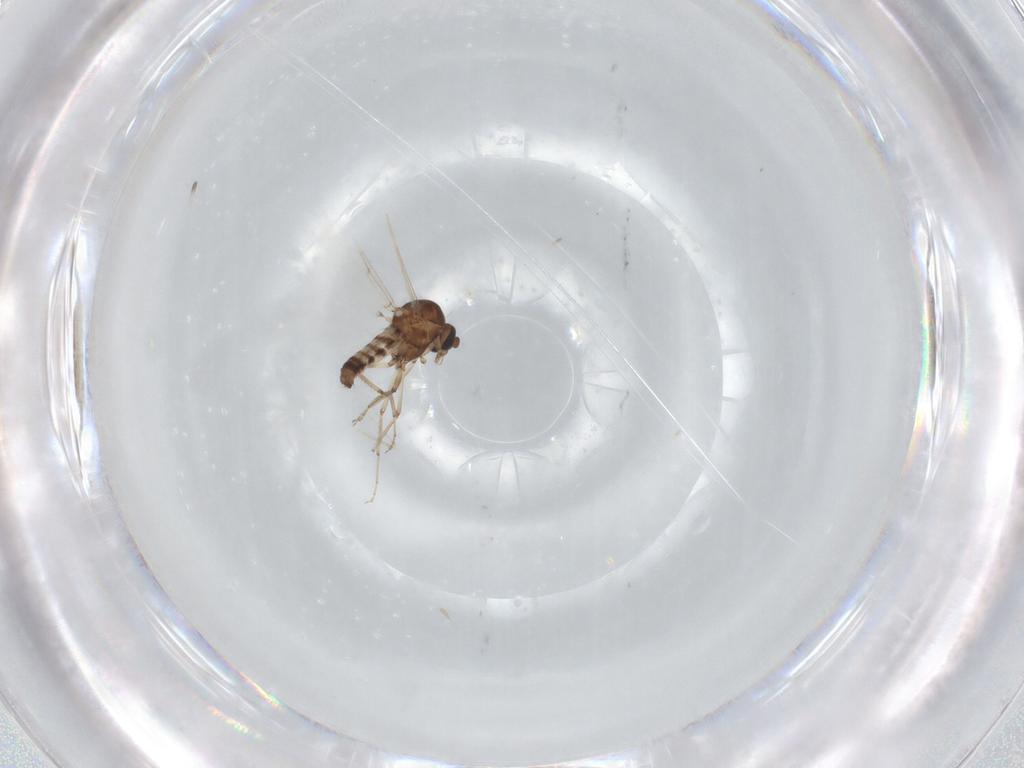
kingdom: Animalia
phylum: Arthropoda
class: Insecta
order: Diptera
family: Ceratopogonidae
